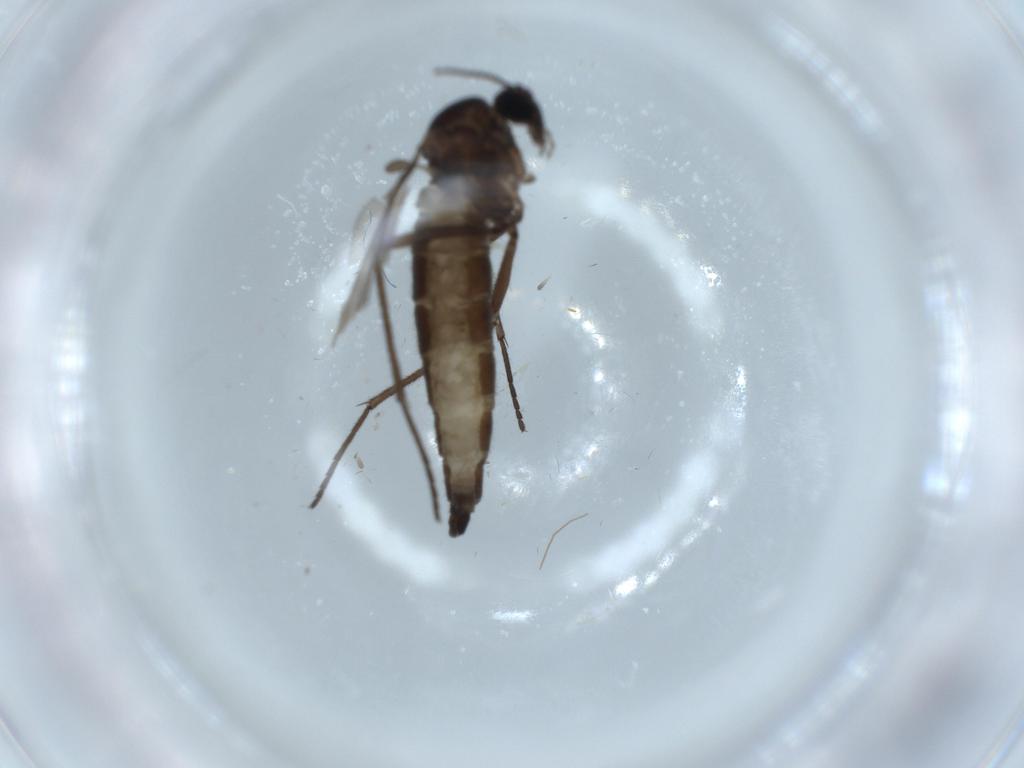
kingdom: Animalia
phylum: Arthropoda
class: Insecta
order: Diptera
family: Sciaridae
